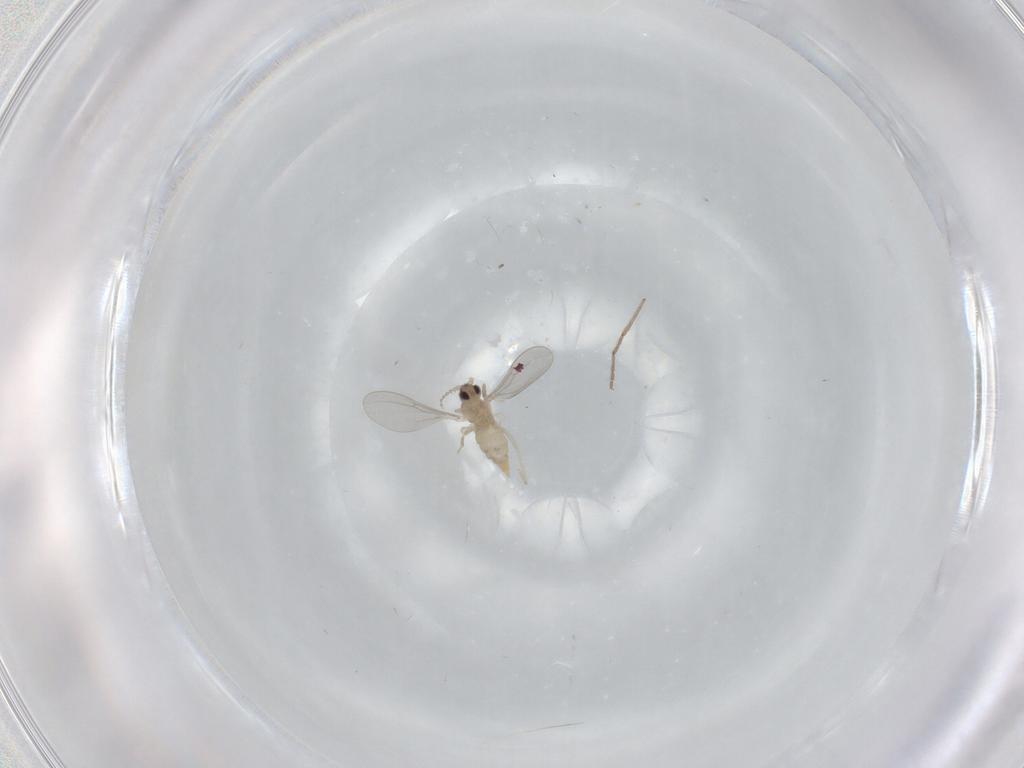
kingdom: Animalia
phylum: Arthropoda
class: Insecta
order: Diptera
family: Cecidomyiidae
